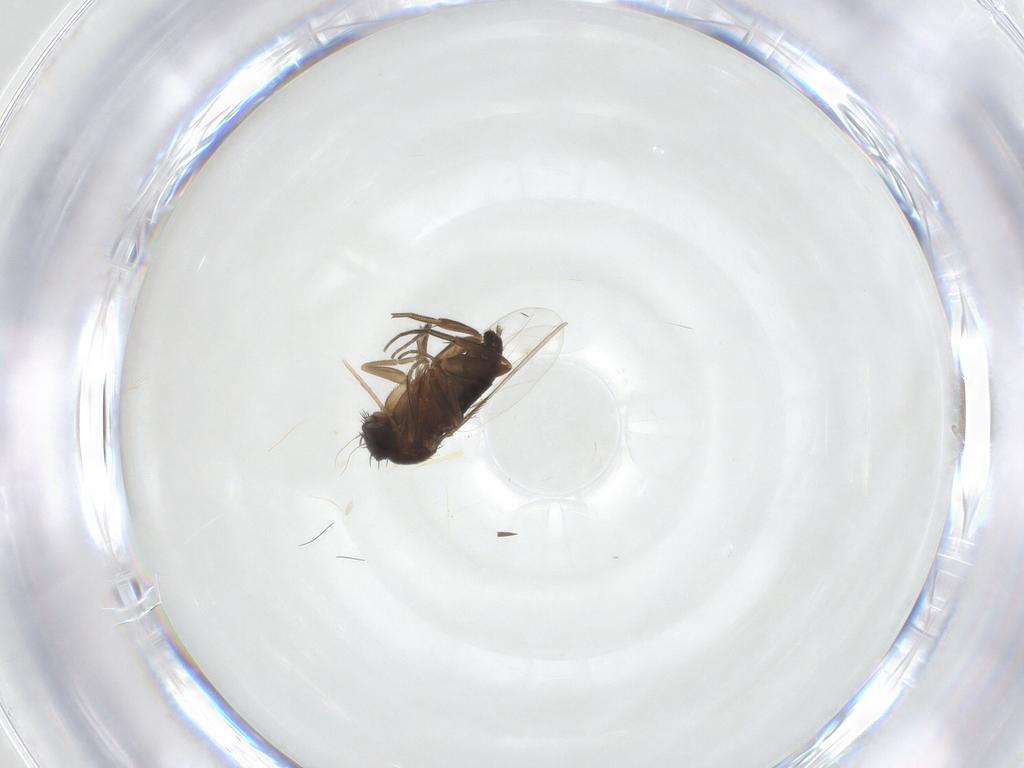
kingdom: Animalia
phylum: Arthropoda
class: Insecta
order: Diptera
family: Phoridae
